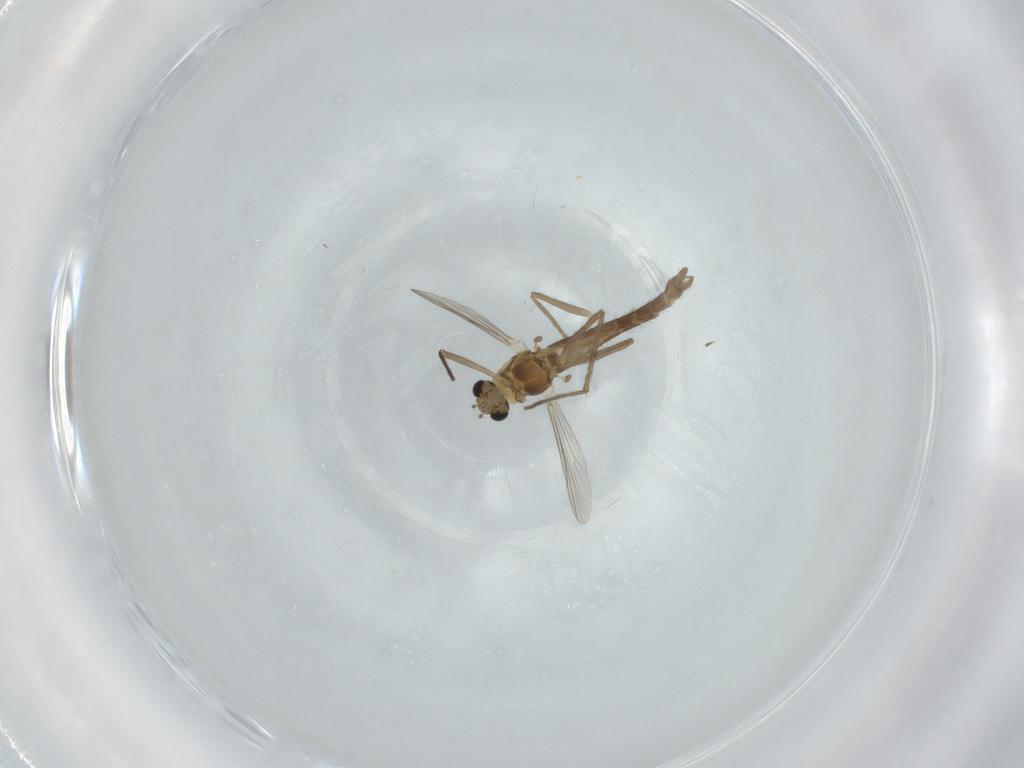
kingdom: Animalia
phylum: Arthropoda
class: Insecta
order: Diptera
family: Chironomidae
